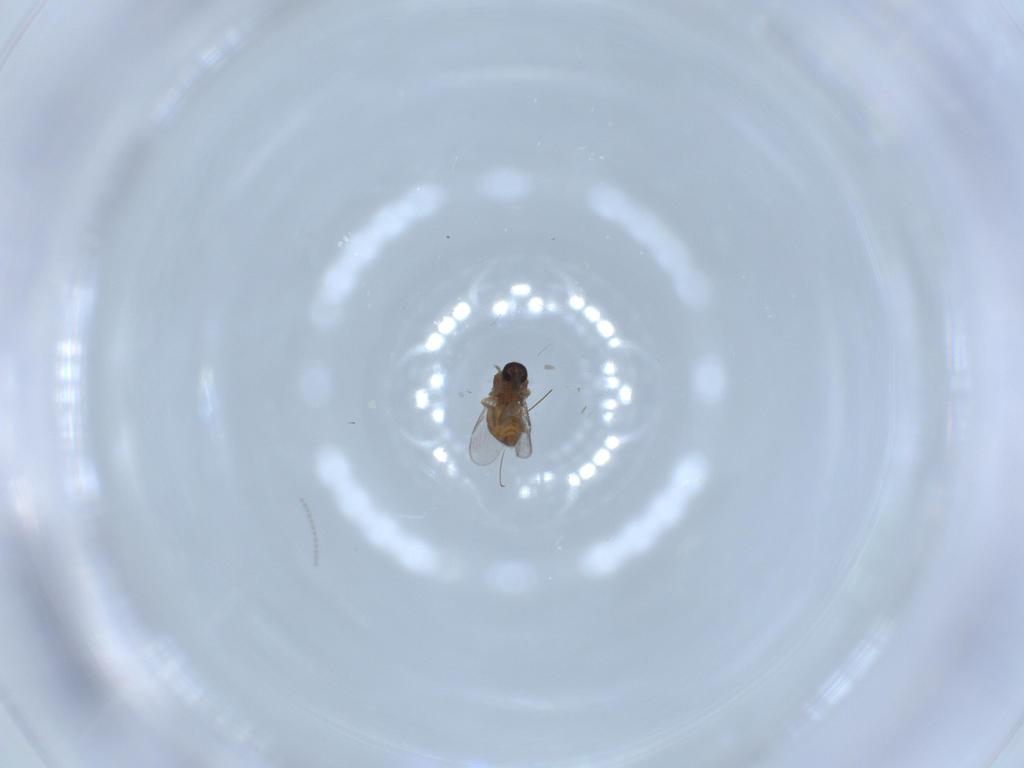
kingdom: Animalia
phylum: Arthropoda
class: Insecta
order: Diptera
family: Ceratopogonidae
